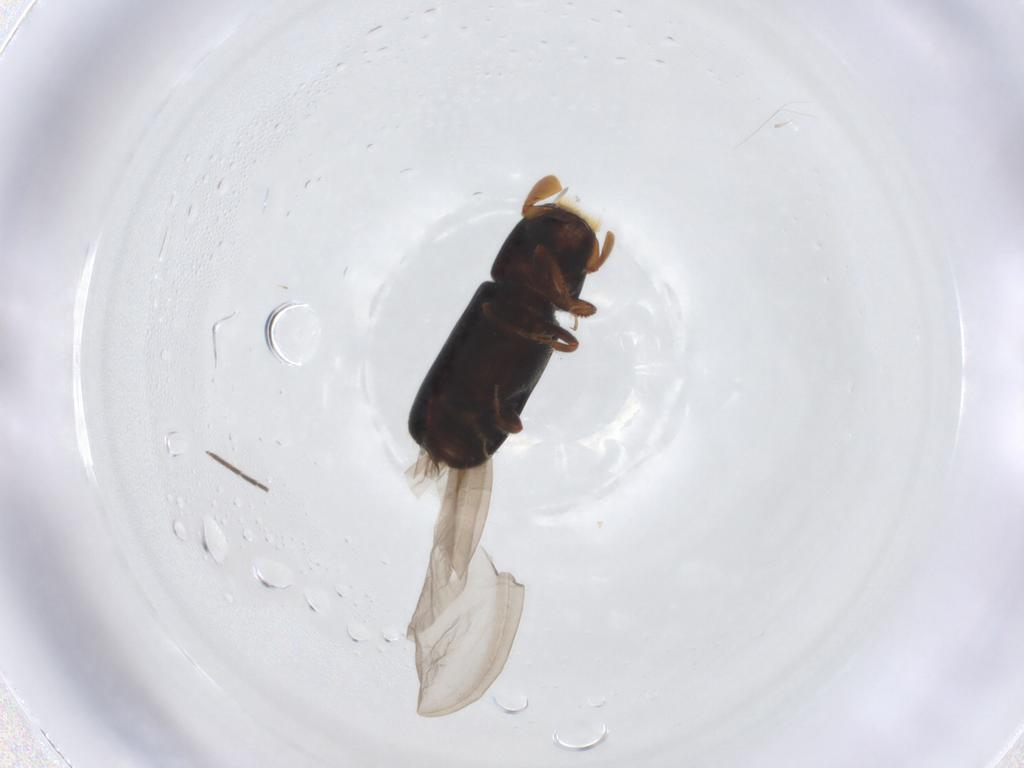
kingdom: Animalia
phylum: Arthropoda
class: Insecta
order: Coleoptera
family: Curculionidae
